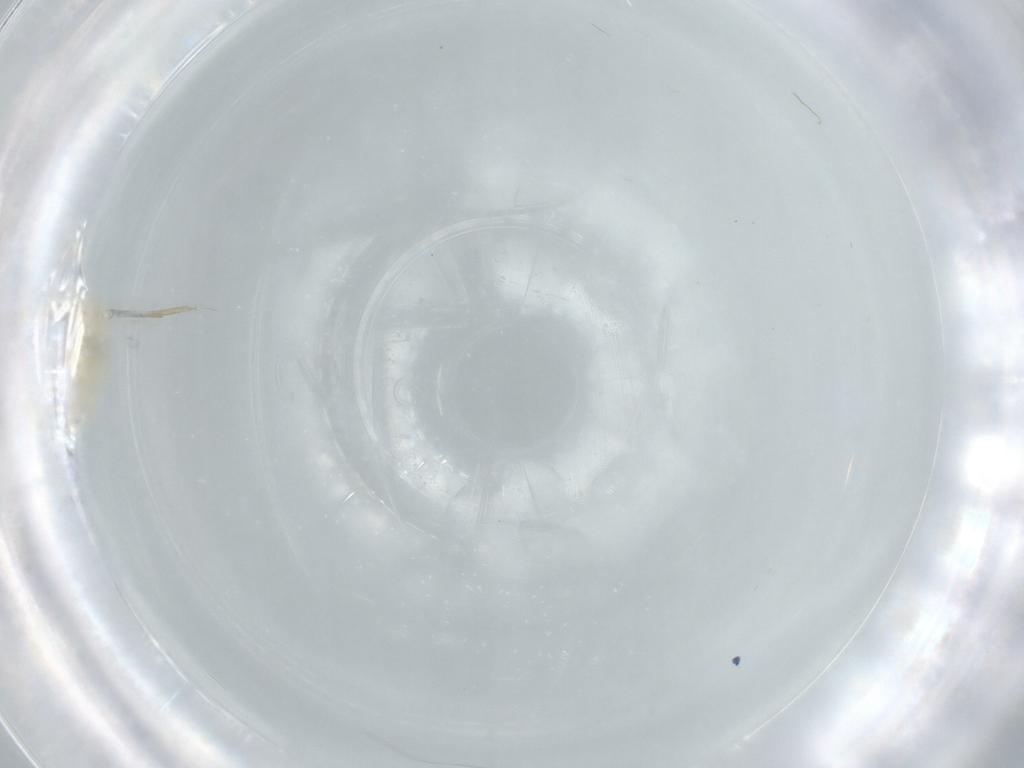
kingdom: Animalia
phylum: Arthropoda
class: Insecta
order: Diptera
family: Cecidomyiidae
